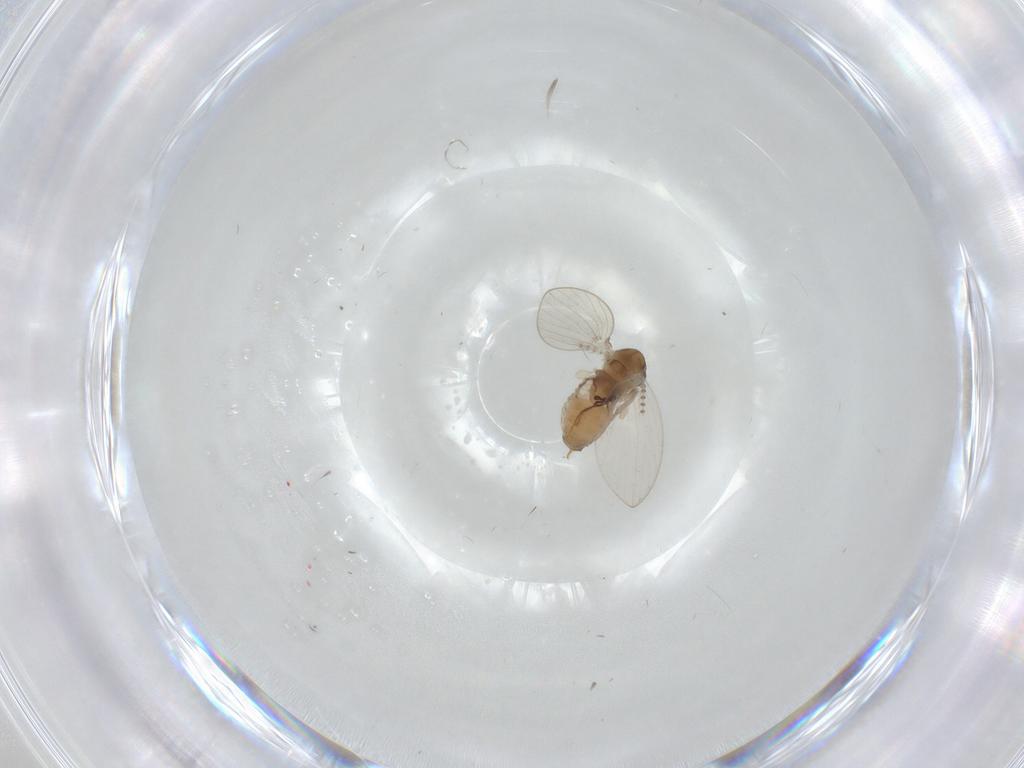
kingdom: Animalia
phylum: Arthropoda
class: Insecta
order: Diptera
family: Psychodidae
